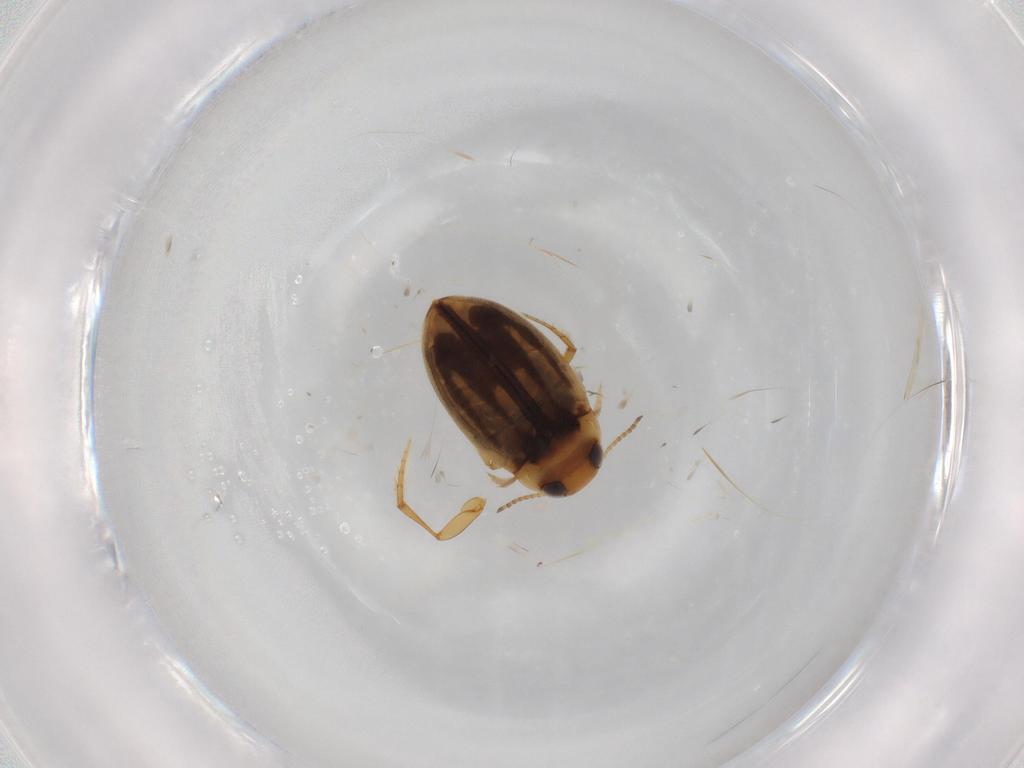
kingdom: Animalia
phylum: Arthropoda
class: Insecta
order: Coleoptera
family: Dytiscidae
